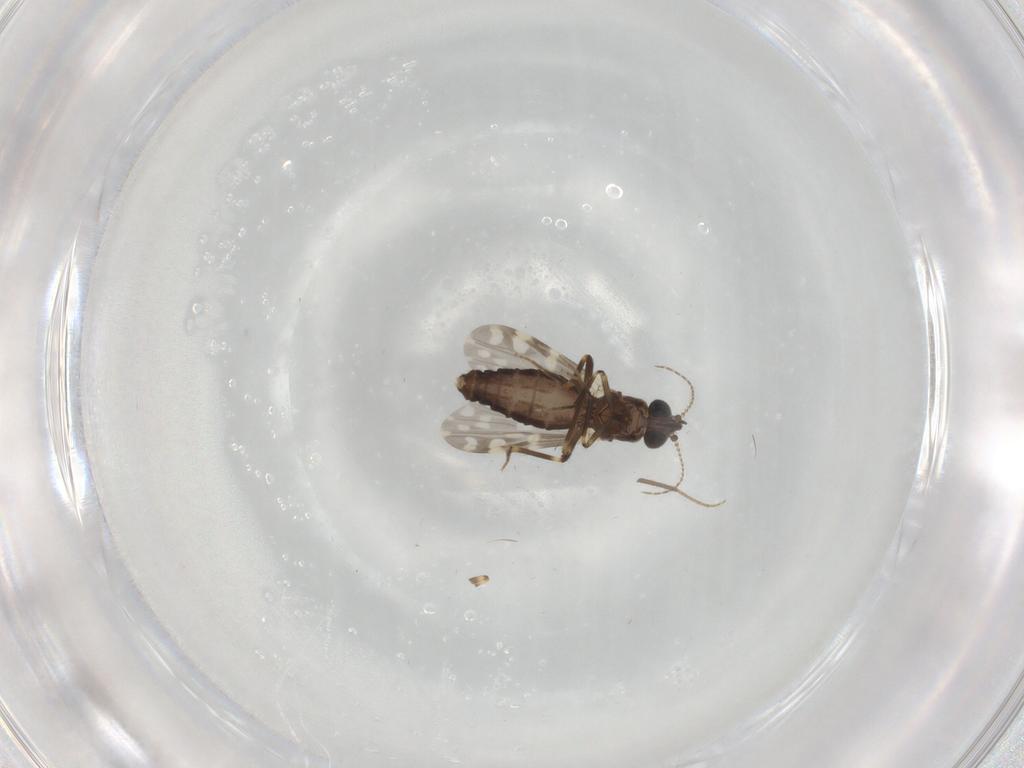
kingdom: Animalia
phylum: Arthropoda
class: Insecta
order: Diptera
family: Ceratopogonidae
